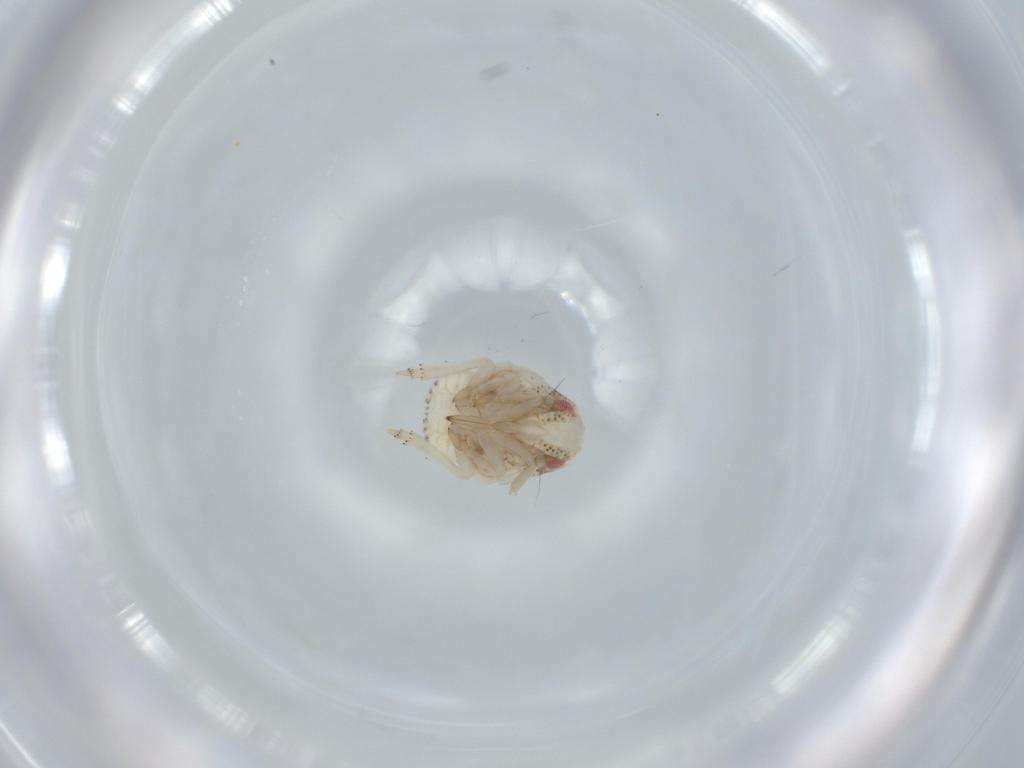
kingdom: Animalia
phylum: Arthropoda
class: Insecta
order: Hemiptera
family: Acanaloniidae
